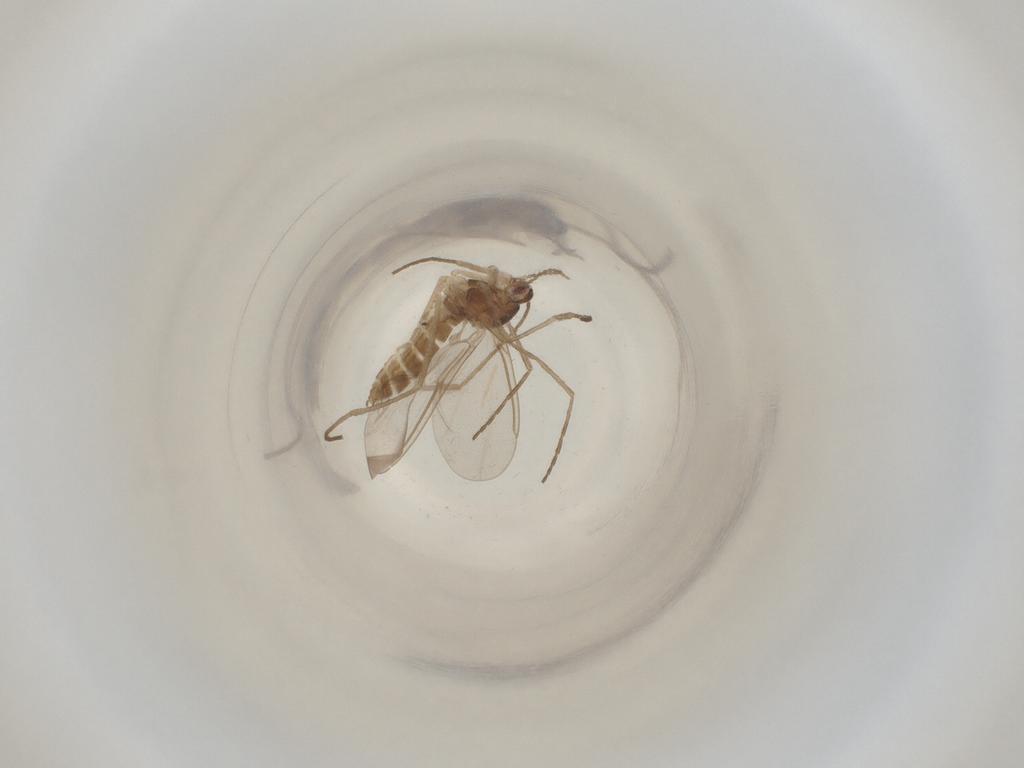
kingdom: Animalia
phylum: Arthropoda
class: Insecta
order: Diptera
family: Cecidomyiidae
